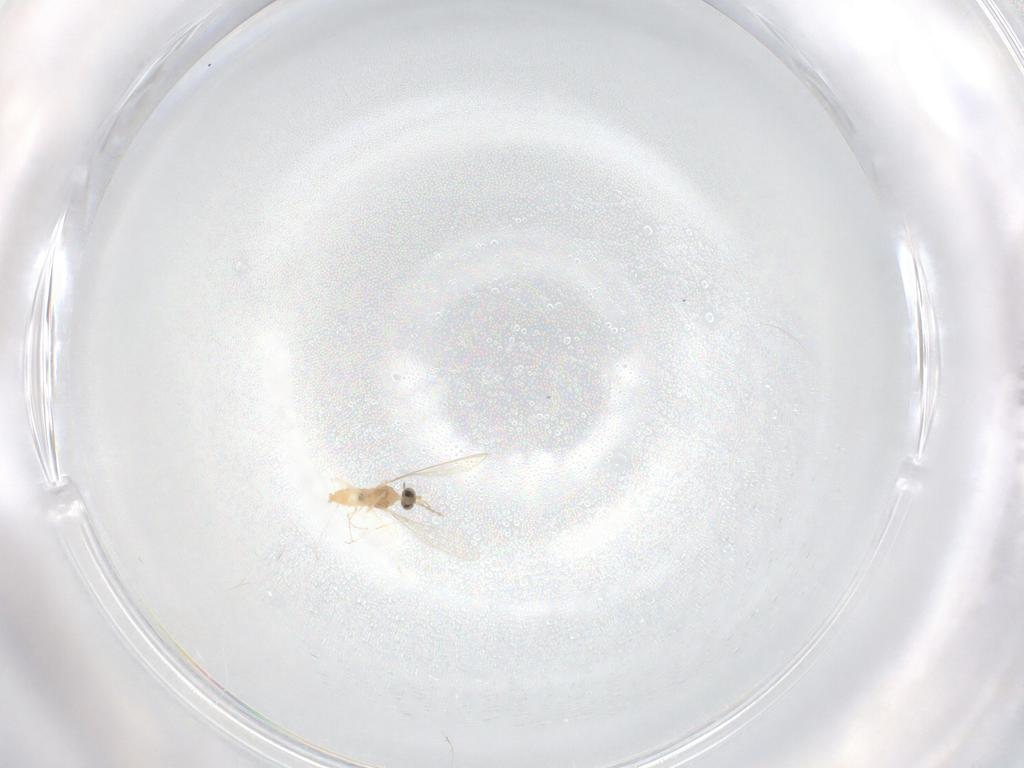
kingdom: Animalia
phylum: Arthropoda
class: Insecta
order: Diptera
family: Cecidomyiidae
